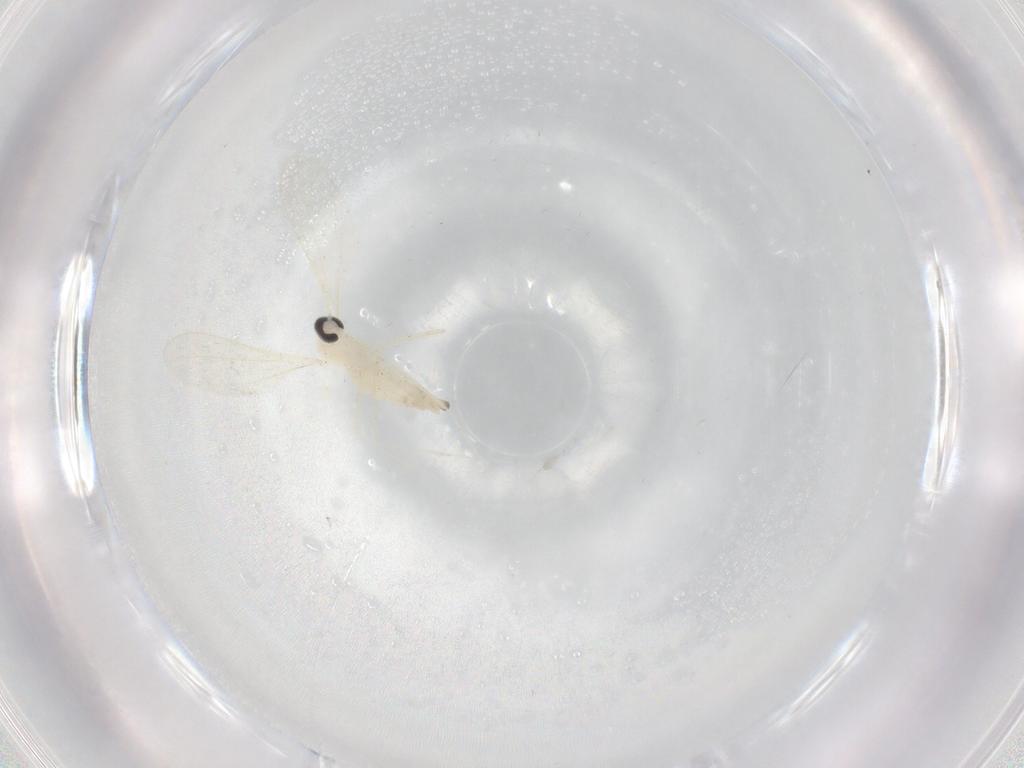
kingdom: Animalia
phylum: Arthropoda
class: Insecta
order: Diptera
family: Cecidomyiidae
